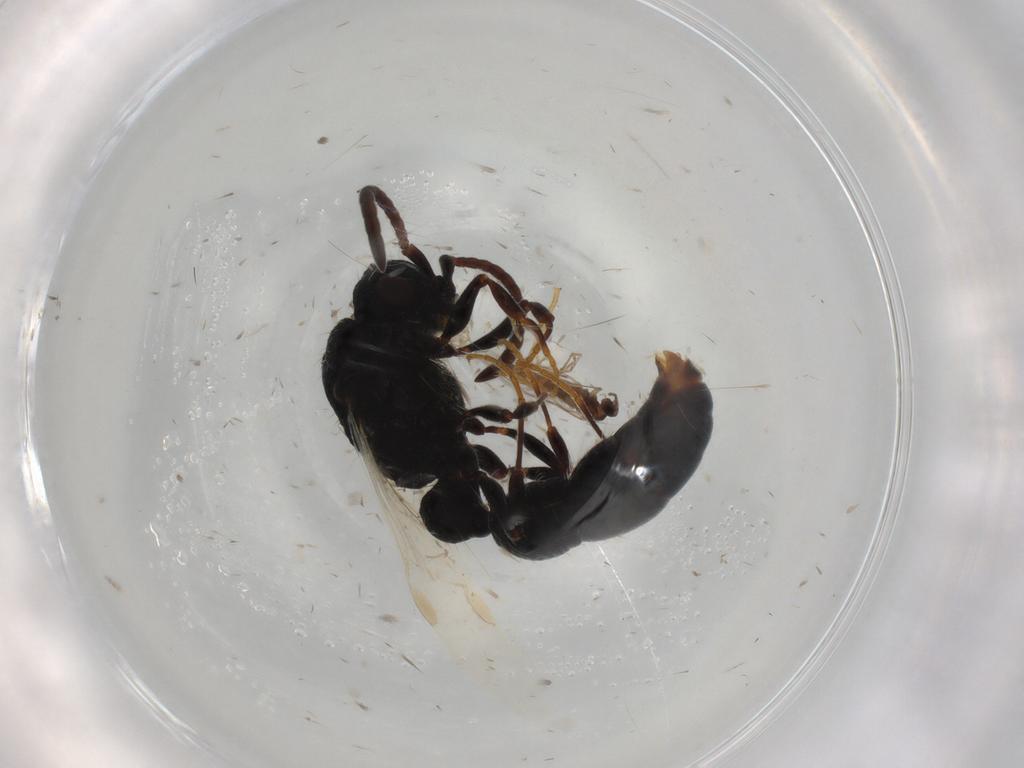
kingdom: Animalia
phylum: Arthropoda
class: Insecta
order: Diptera
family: Cecidomyiidae
